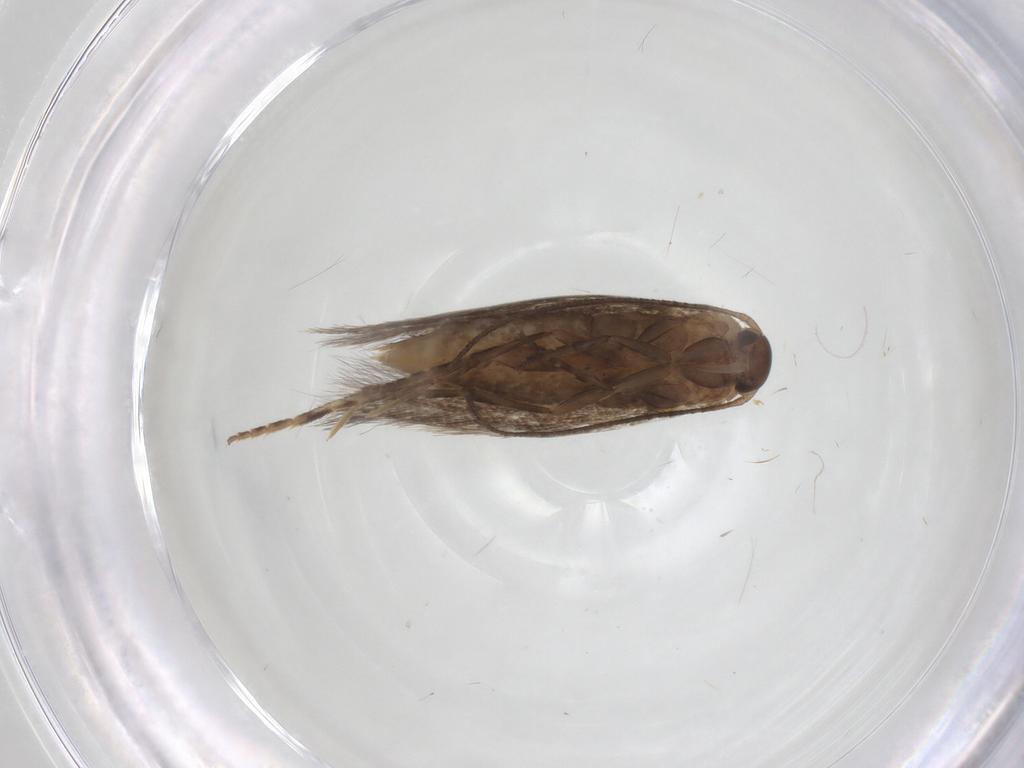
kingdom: Animalia
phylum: Arthropoda
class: Insecta
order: Lepidoptera
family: Elachistidae
